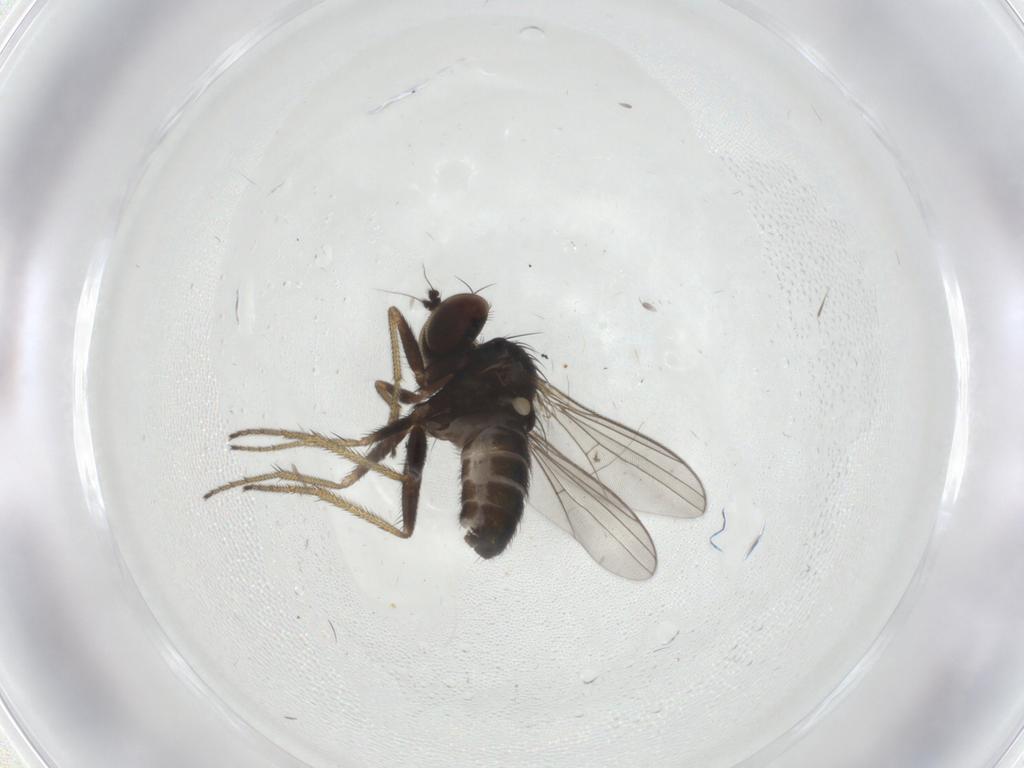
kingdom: Animalia
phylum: Arthropoda
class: Insecta
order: Diptera
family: Dolichopodidae
